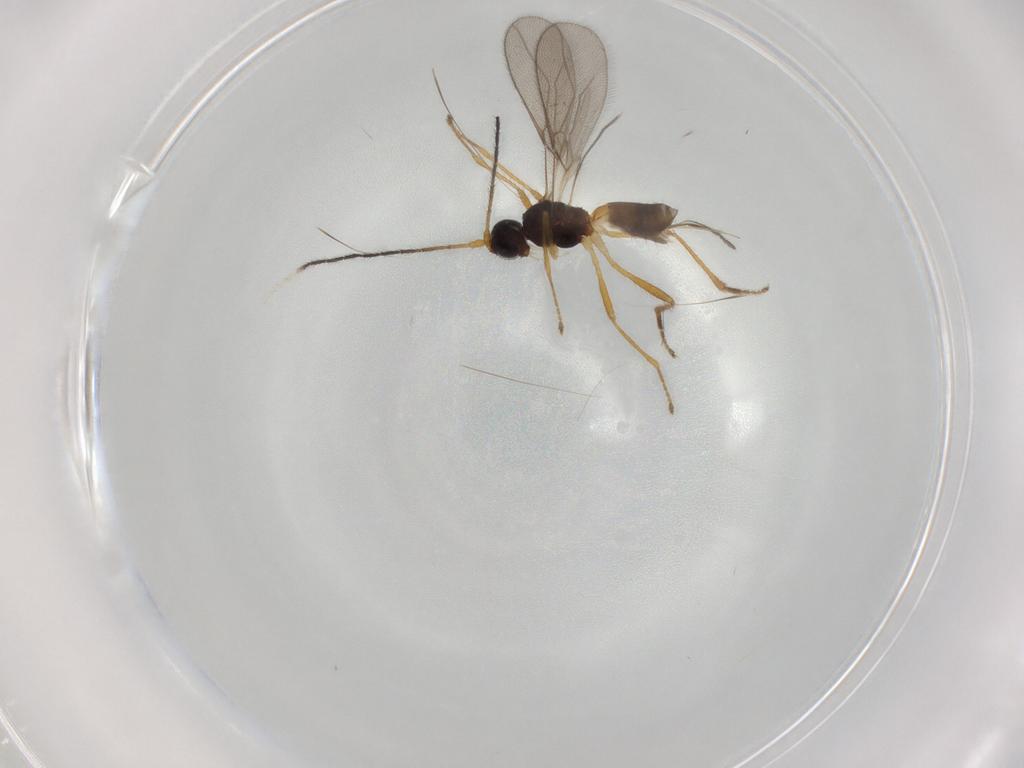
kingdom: Animalia
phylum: Arthropoda
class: Insecta
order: Hymenoptera
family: Braconidae
